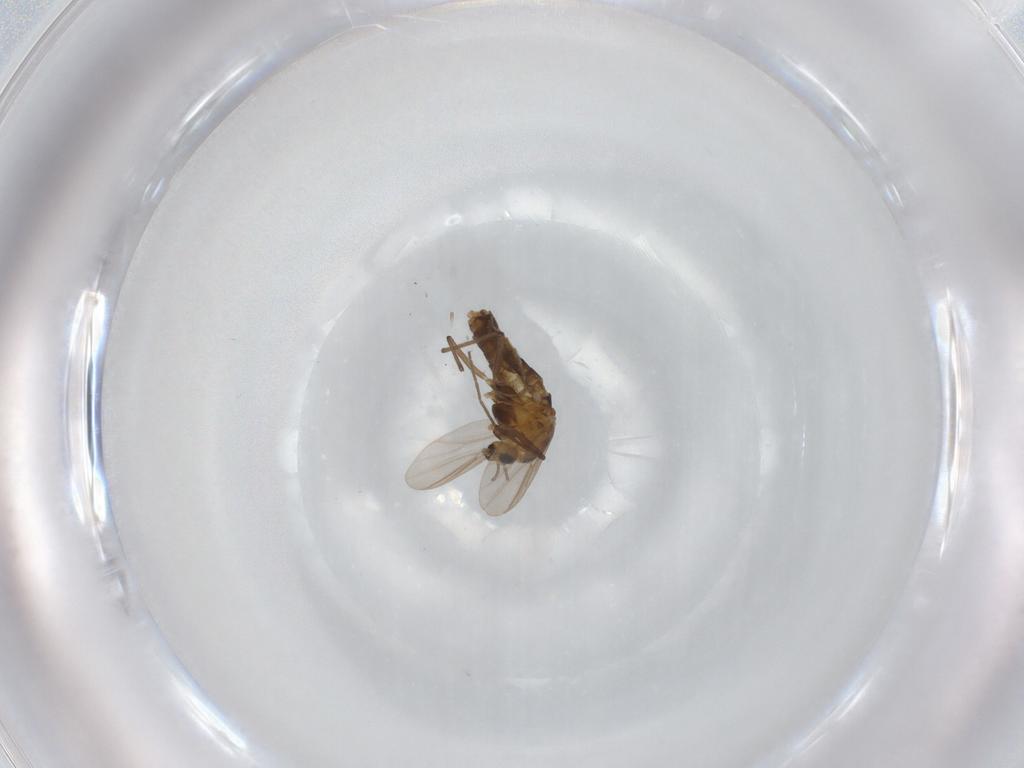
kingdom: Animalia
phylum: Arthropoda
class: Insecta
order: Diptera
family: Chironomidae
